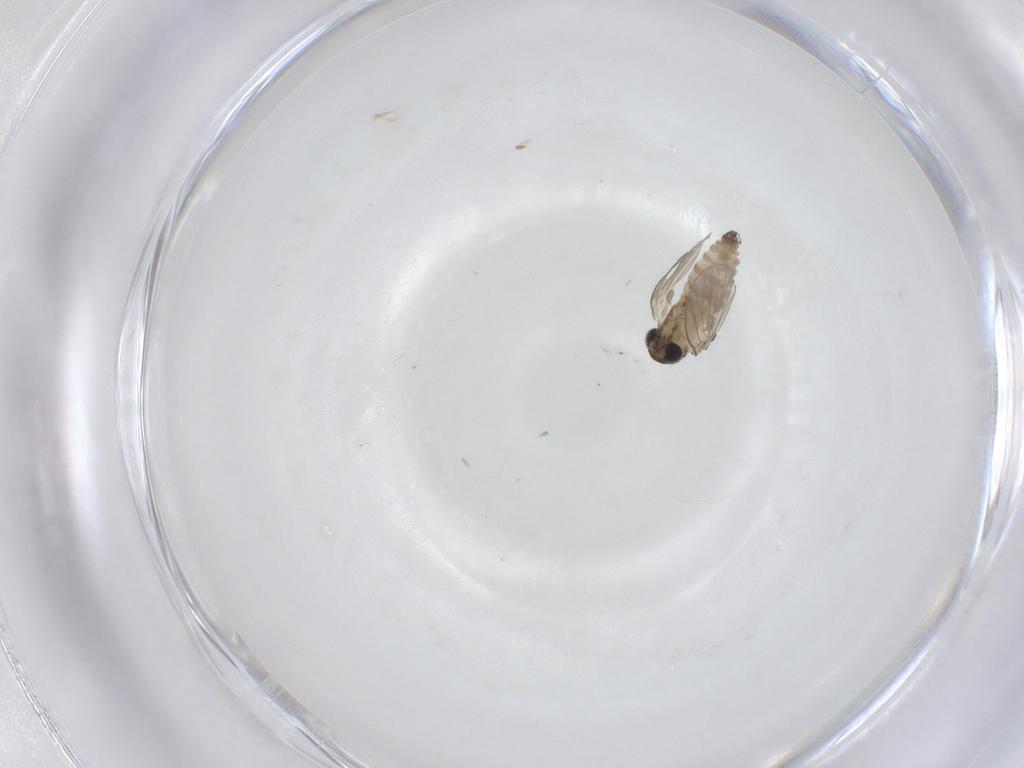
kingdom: Animalia
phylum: Arthropoda
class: Insecta
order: Diptera
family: Psychodidae
